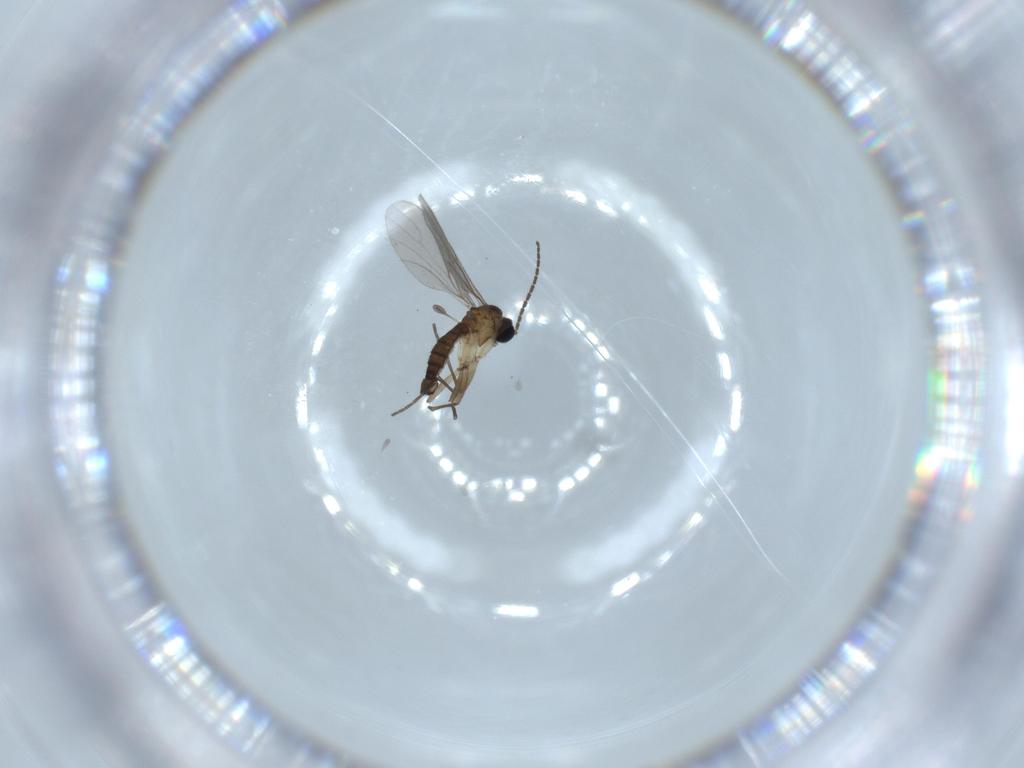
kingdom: Animalia
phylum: Arthropoda
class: Insecta
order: Diptera
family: Sciaridae
